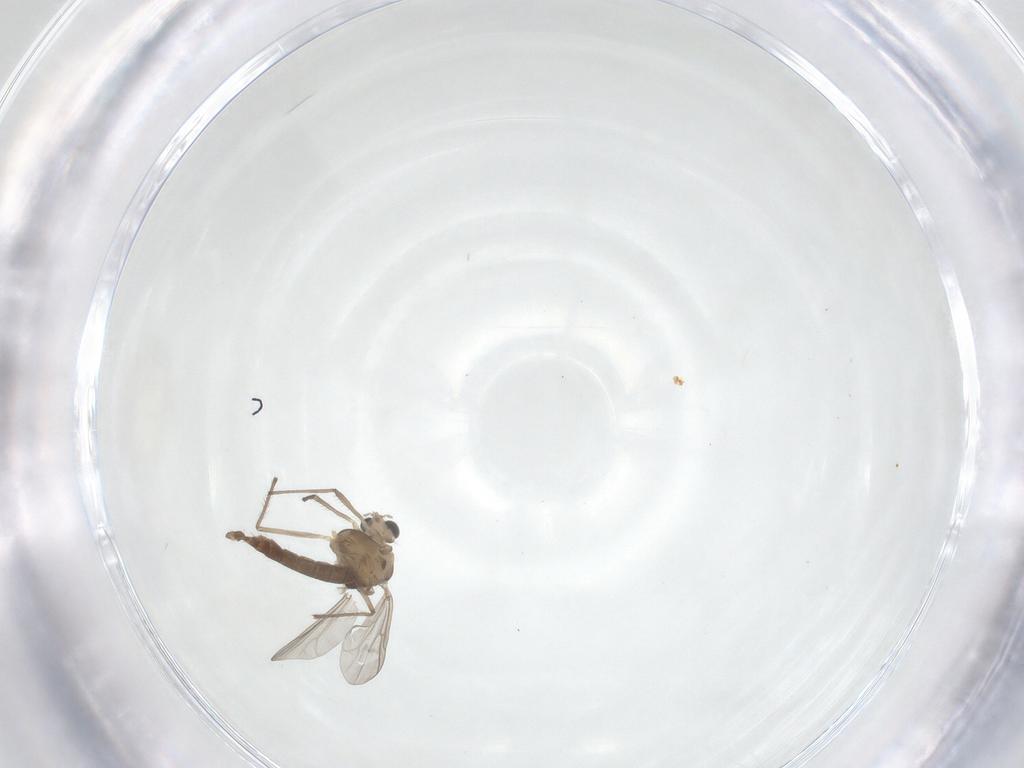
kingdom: Animalia
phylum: Arthropoda
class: Insecta
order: Diptera
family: Chironomidae
